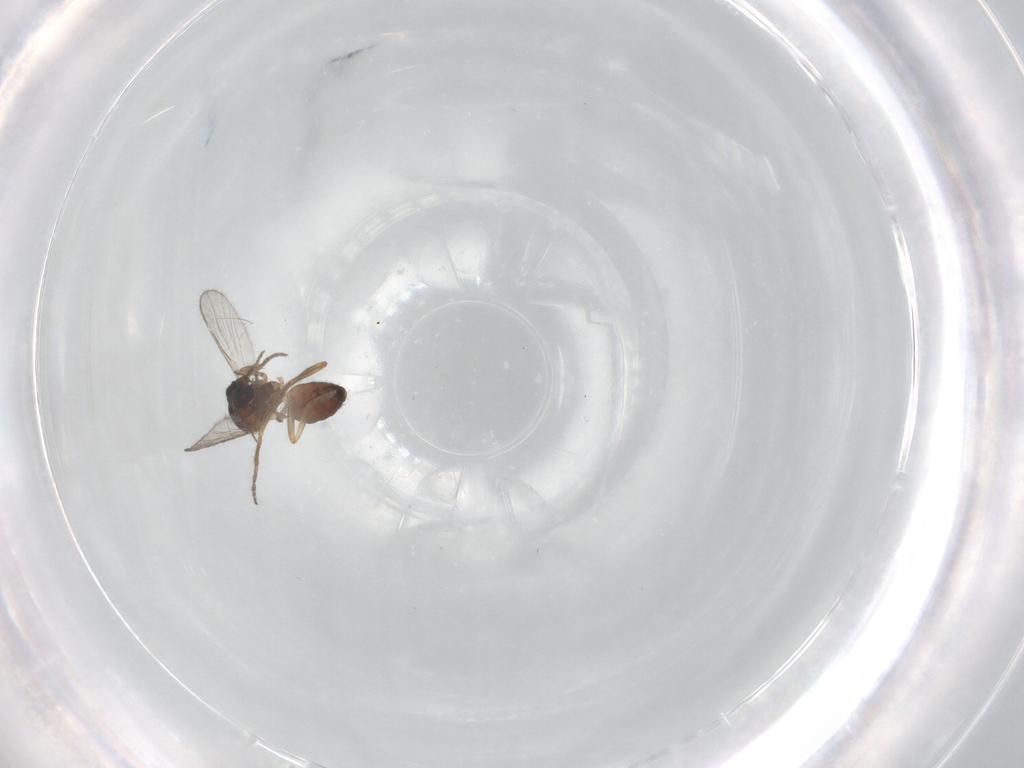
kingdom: Animalia
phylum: Arthropoda
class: Insecta
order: Diptera
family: Ceratopogonidae
